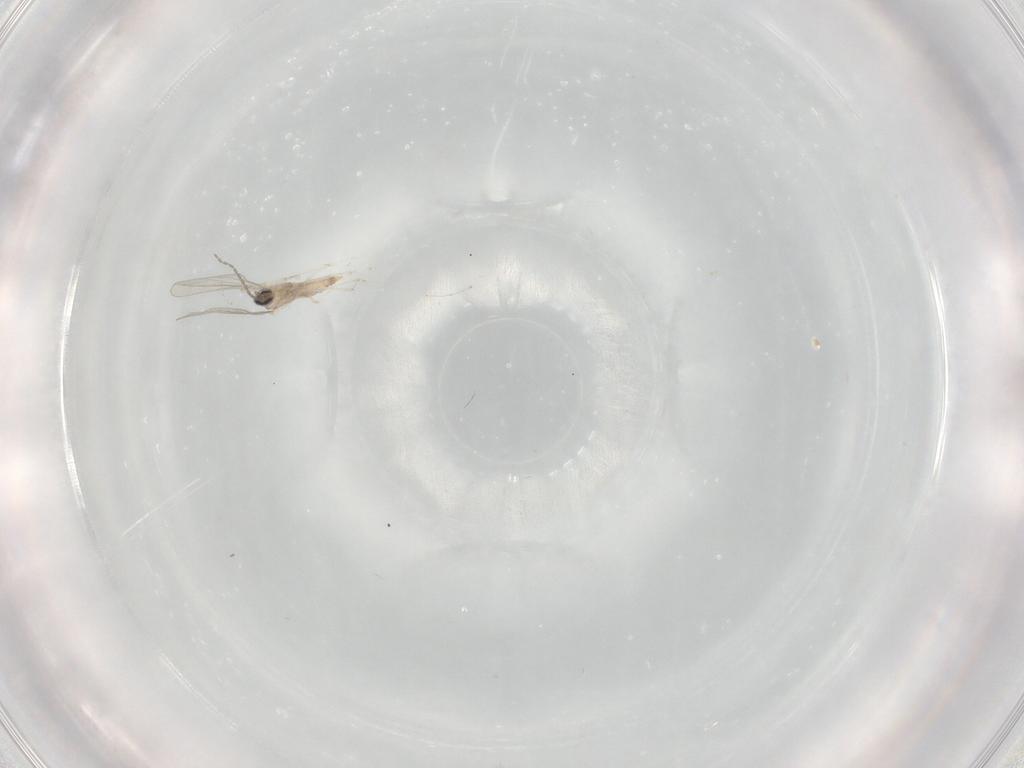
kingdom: Animalia
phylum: Arthropoda
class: Insecta
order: Diptera
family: Cecidomyiidae
